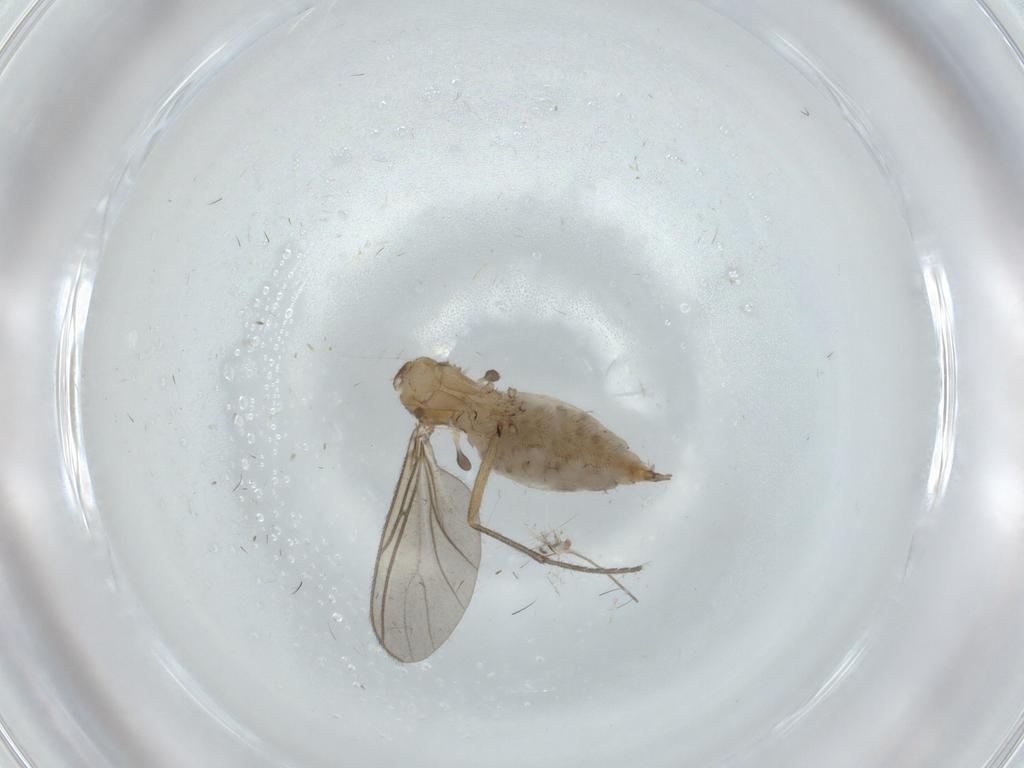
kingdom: Animalia
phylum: Arthropoda
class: Insecta
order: Diptera
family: Sciaridae
